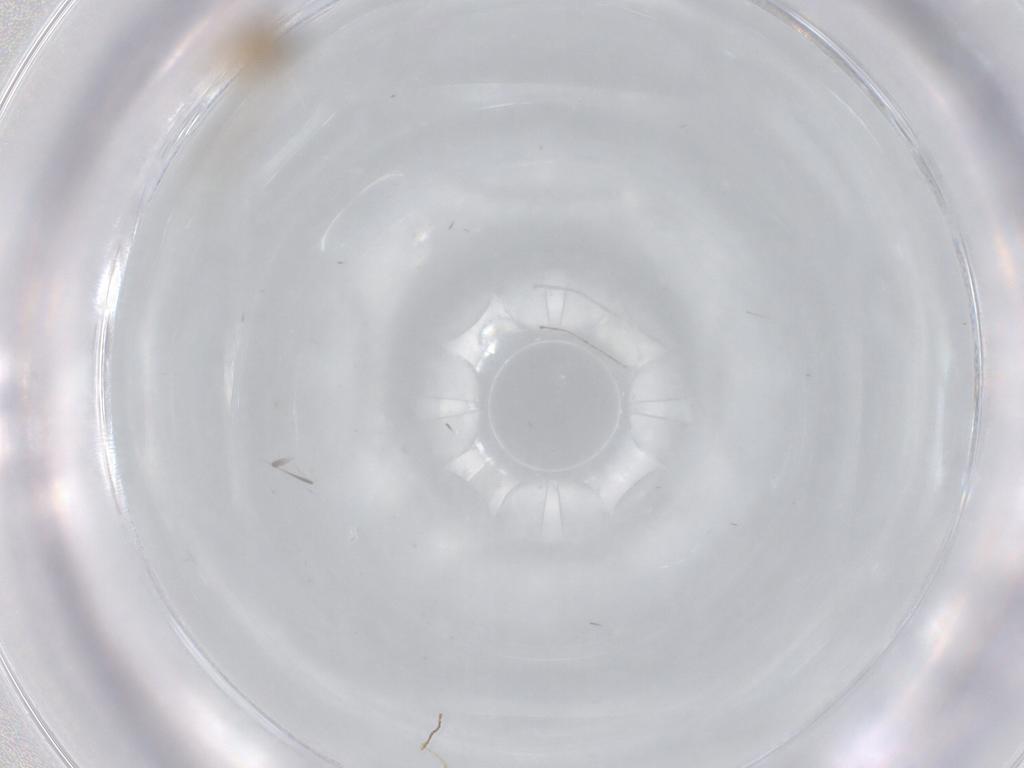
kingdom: Animalia
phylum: Arthropoda
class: Insecta
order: Diptera
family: Cecidomyiidae
